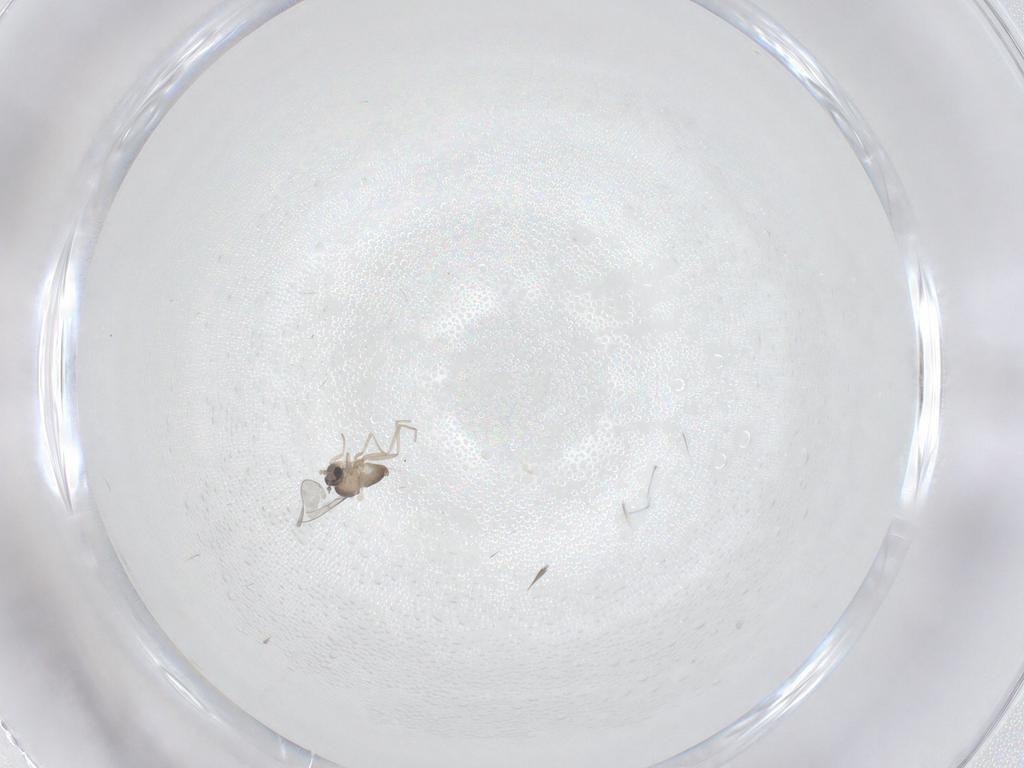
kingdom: Animalia
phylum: Arthropoda
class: Insecta
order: Diptera
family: Cecidomyiidae
